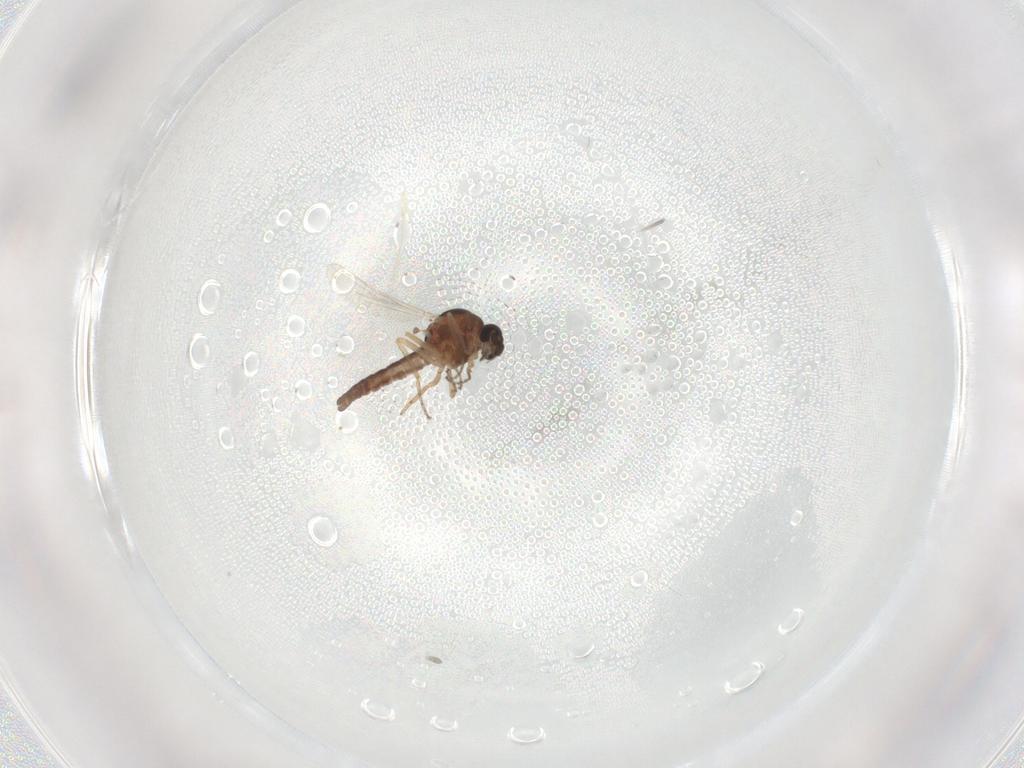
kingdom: Animalia
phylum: Arthropoda
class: Insecta
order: Diptera
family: Ceratopogonidae
